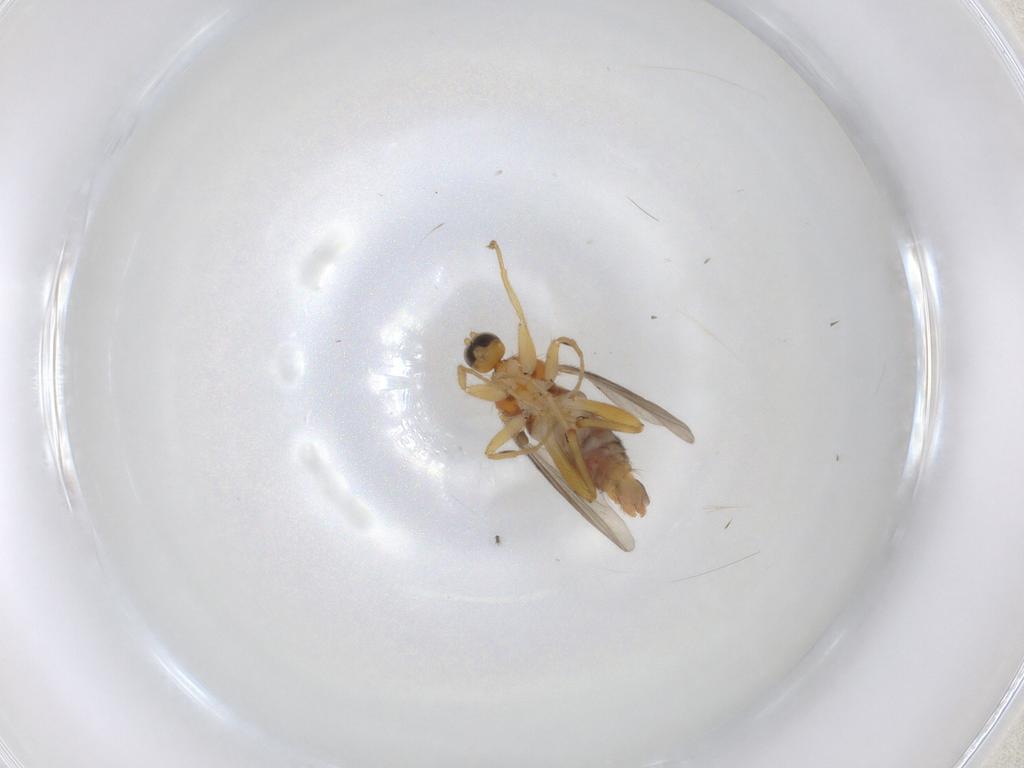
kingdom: Animalia
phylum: Arthropoda
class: Insecta
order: Diptera
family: Hybotidae
